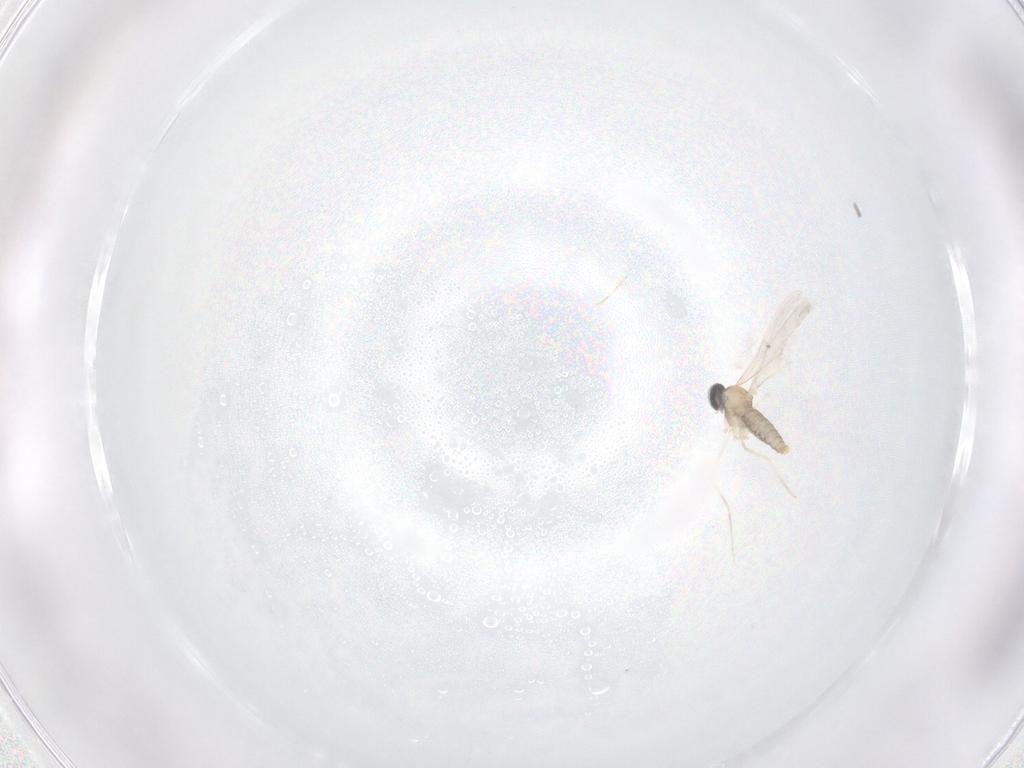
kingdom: Animalia
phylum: Arthropoda
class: Insecta
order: Diptera
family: Cecidomyiidae
